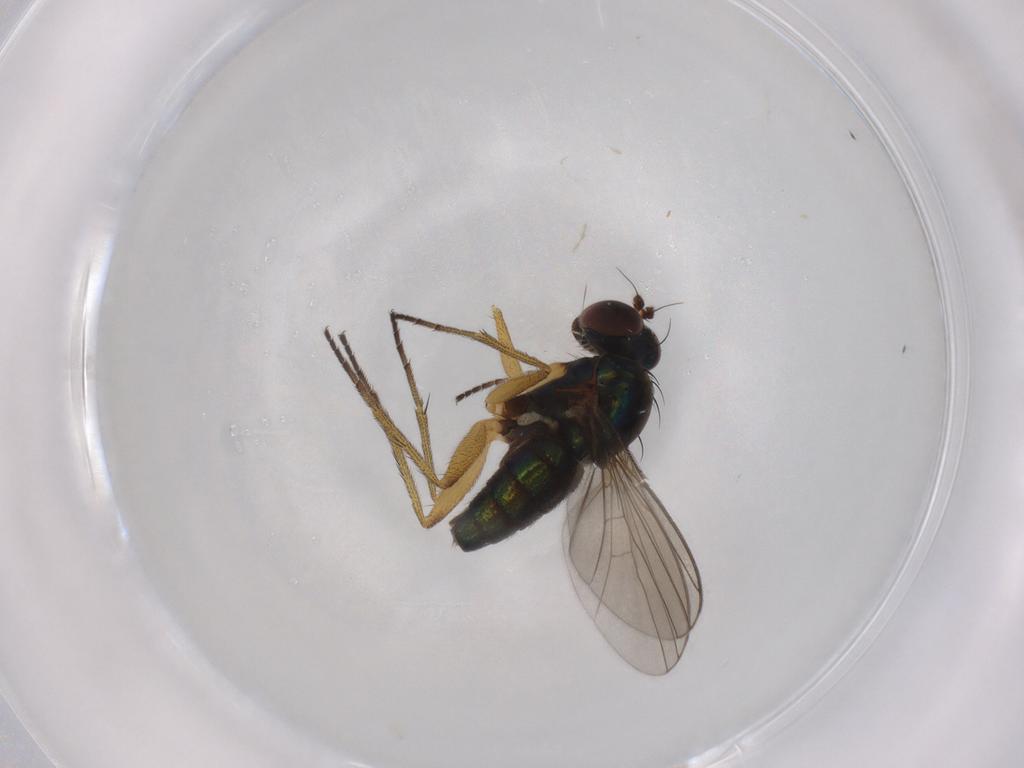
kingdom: Animalia
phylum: Arthropoda
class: Insecta
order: Diptera
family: Dolichopodidae
